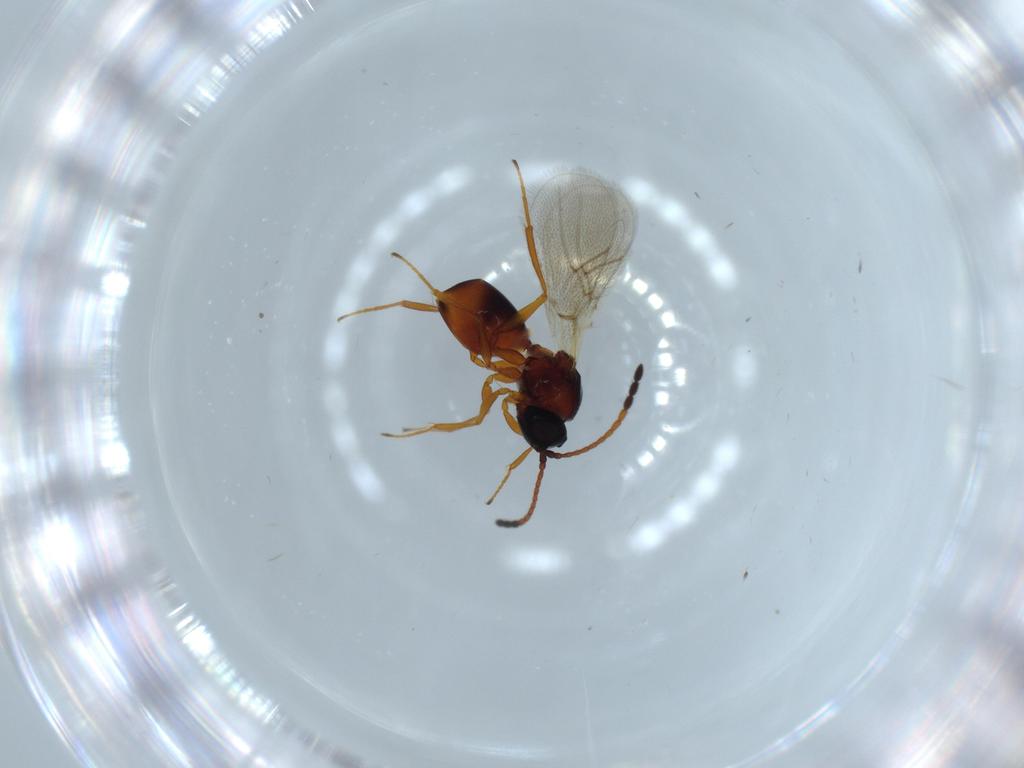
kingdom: Animalia
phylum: Arthropoda
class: Insecta
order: Hymenoptera
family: Figitidae
